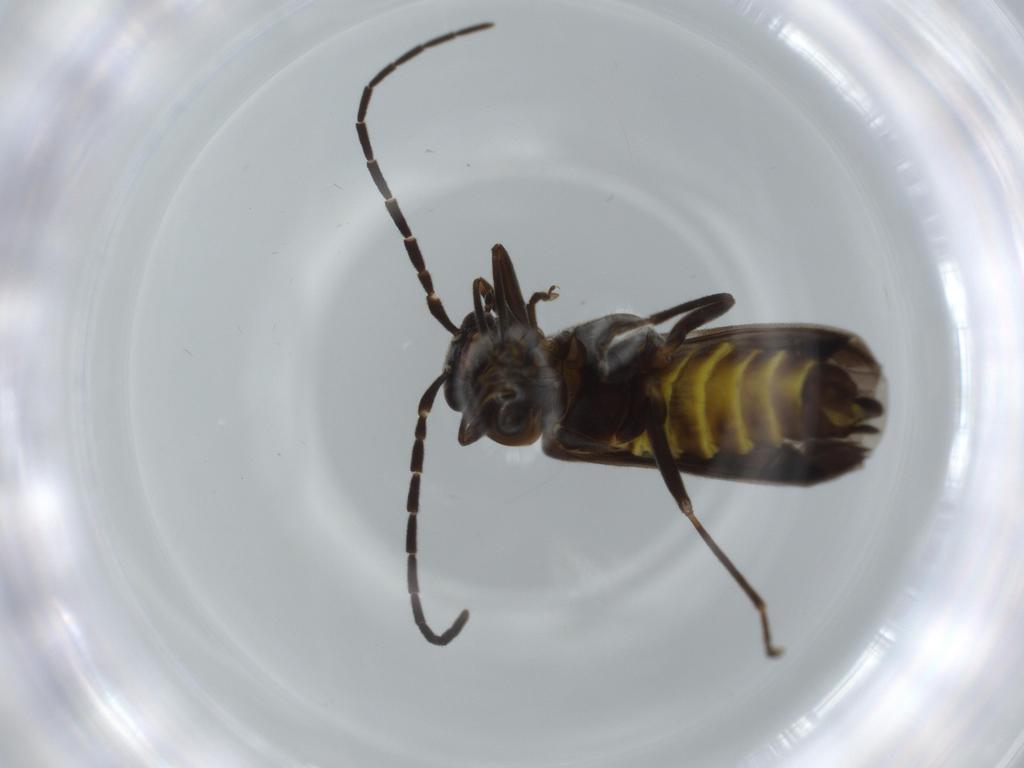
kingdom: Animalia
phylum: Arthropoda
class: Insecta
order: Coleoptera
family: Cantharidae
